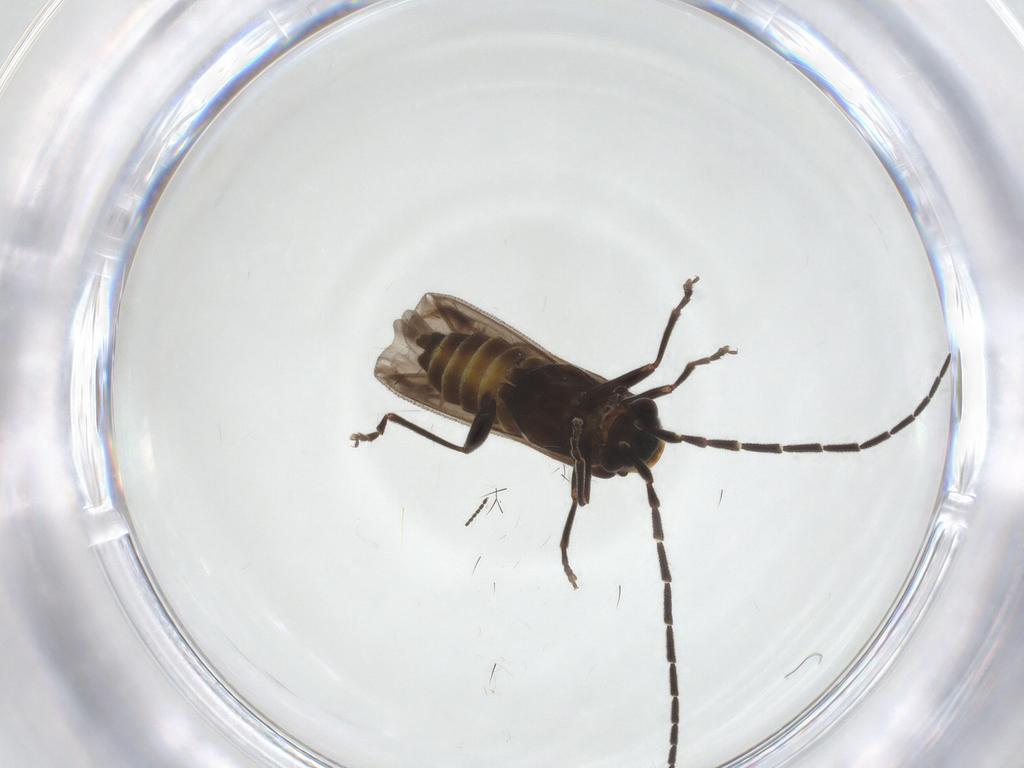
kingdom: Animalia
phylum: Arthropoda
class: Insecta
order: Coleoptera
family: Cantharidae
